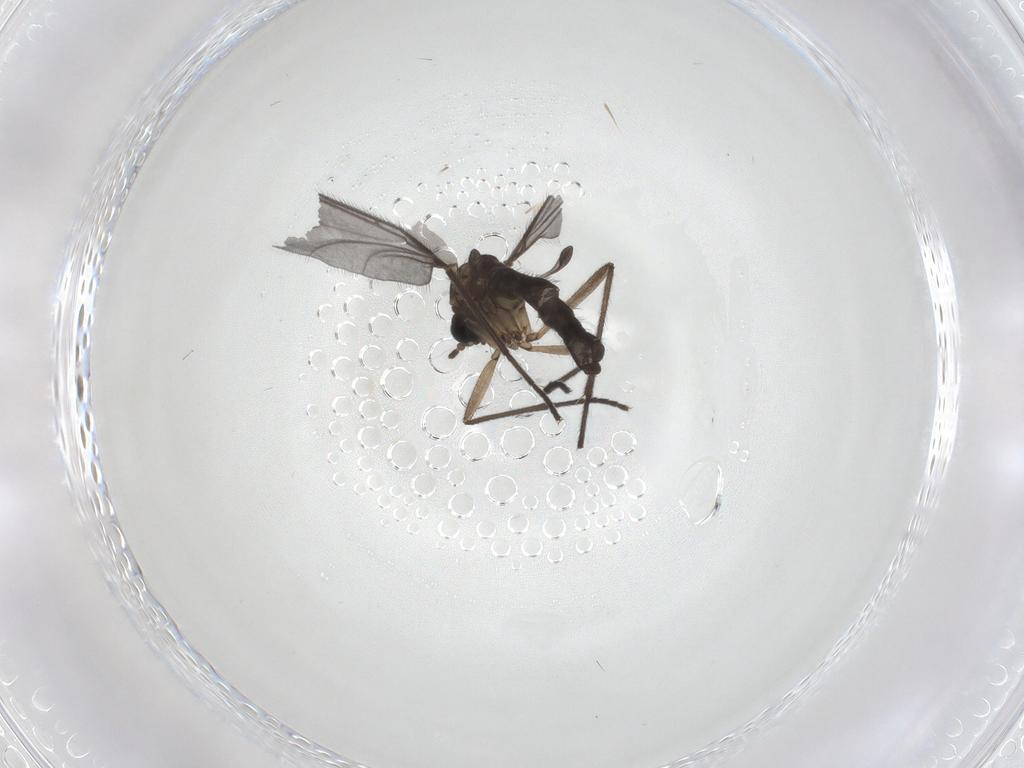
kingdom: Animalia
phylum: Arthropoda
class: Insecta
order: Diptera
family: Sciaridae
